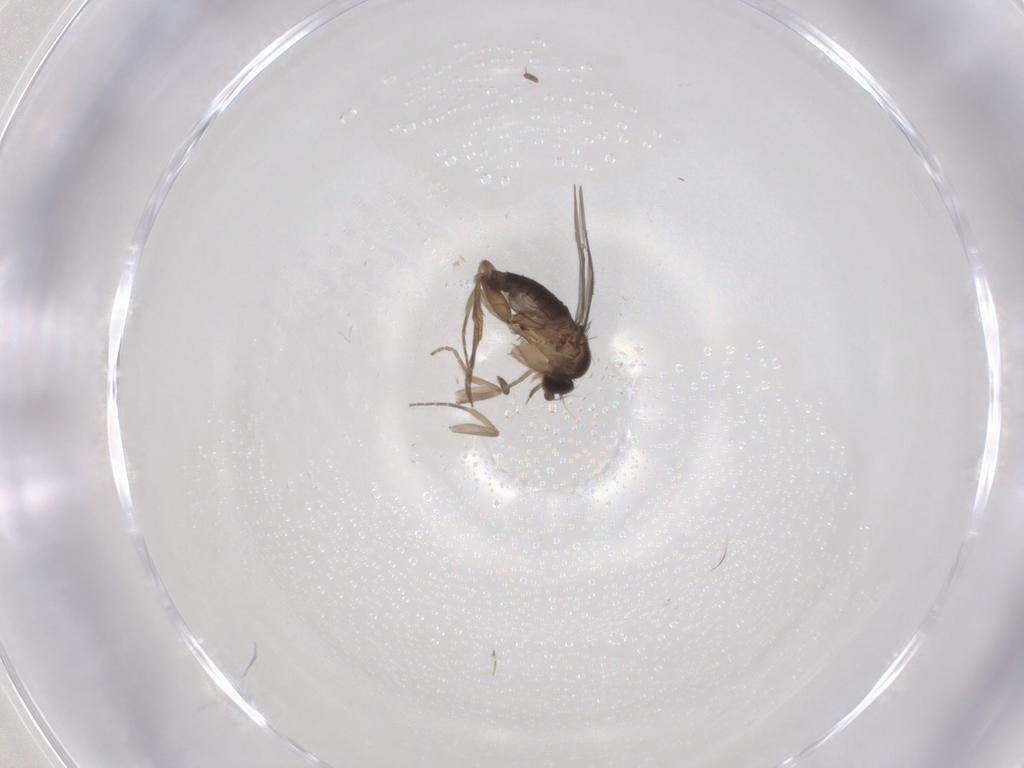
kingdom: Animalia
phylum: Arthropoda
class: Insecta
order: Diptera
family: Phoridae
